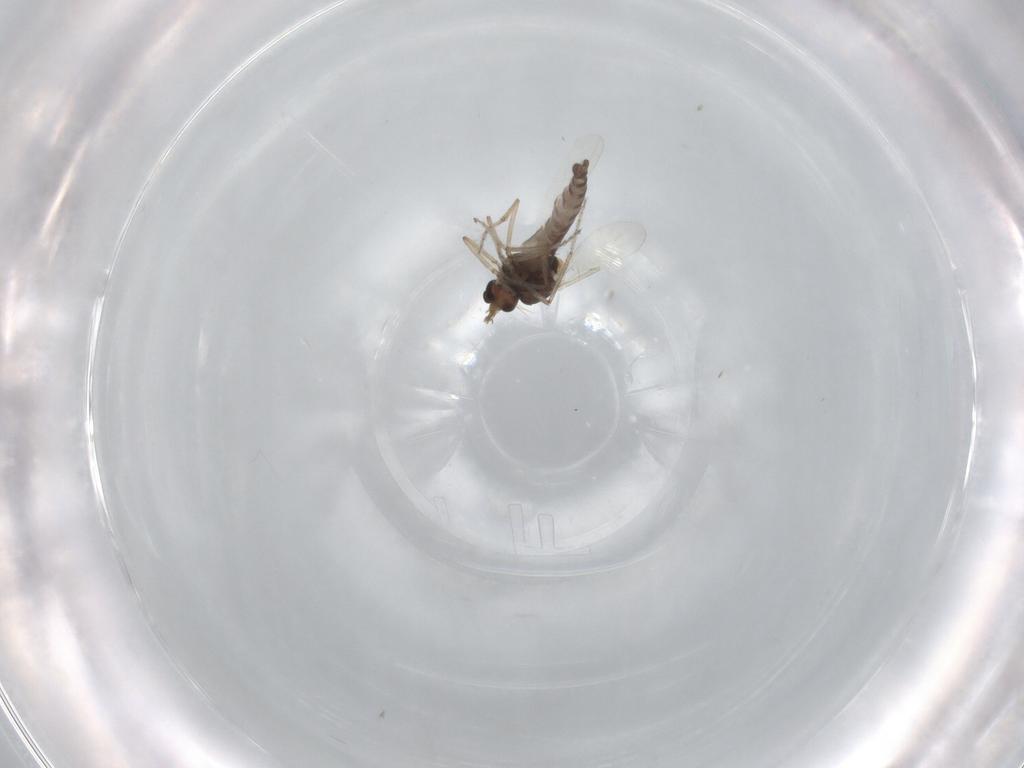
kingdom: Animalia
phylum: Arthropoda
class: Insecta
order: Diptera
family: Ceratopogonidae
